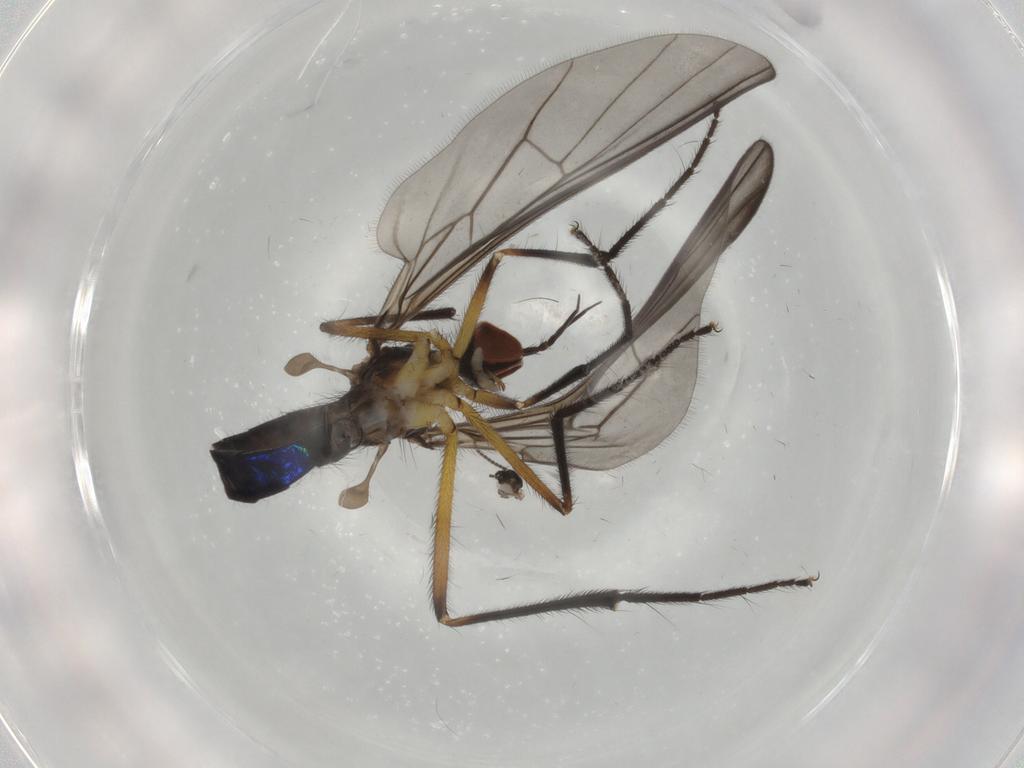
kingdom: Animalia
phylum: Arthropoda
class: Insecta
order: Diptera
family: Empididae
